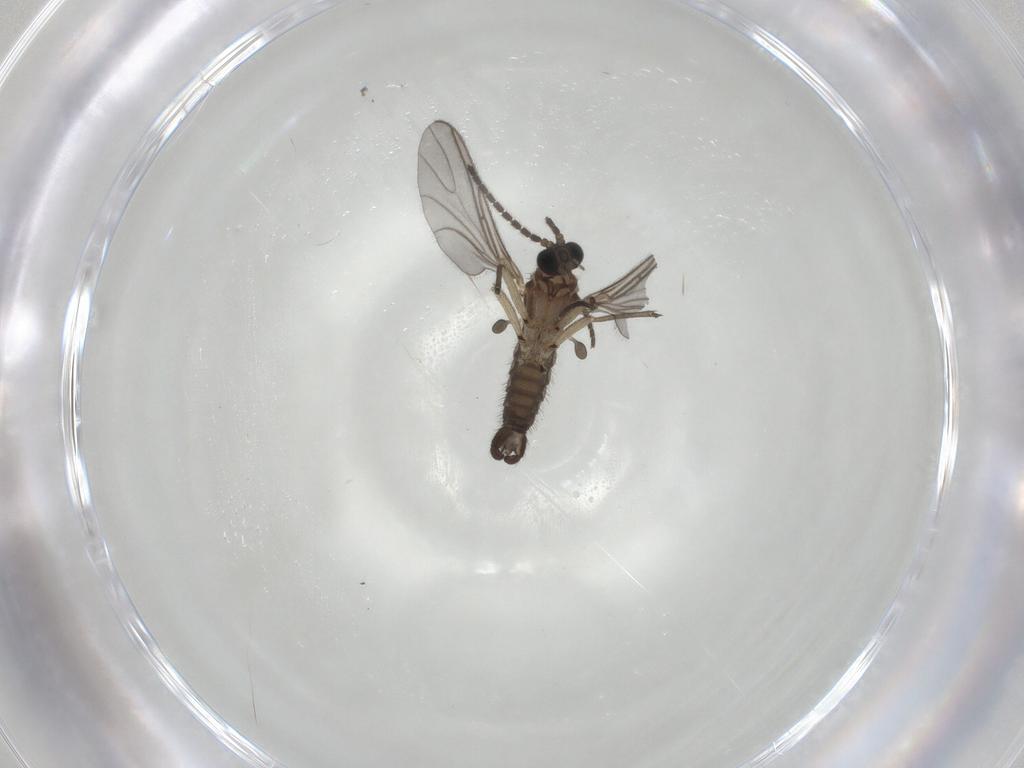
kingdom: Animalia
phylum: Arthropoda
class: Insecta
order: Diptera
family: Sciaridae
